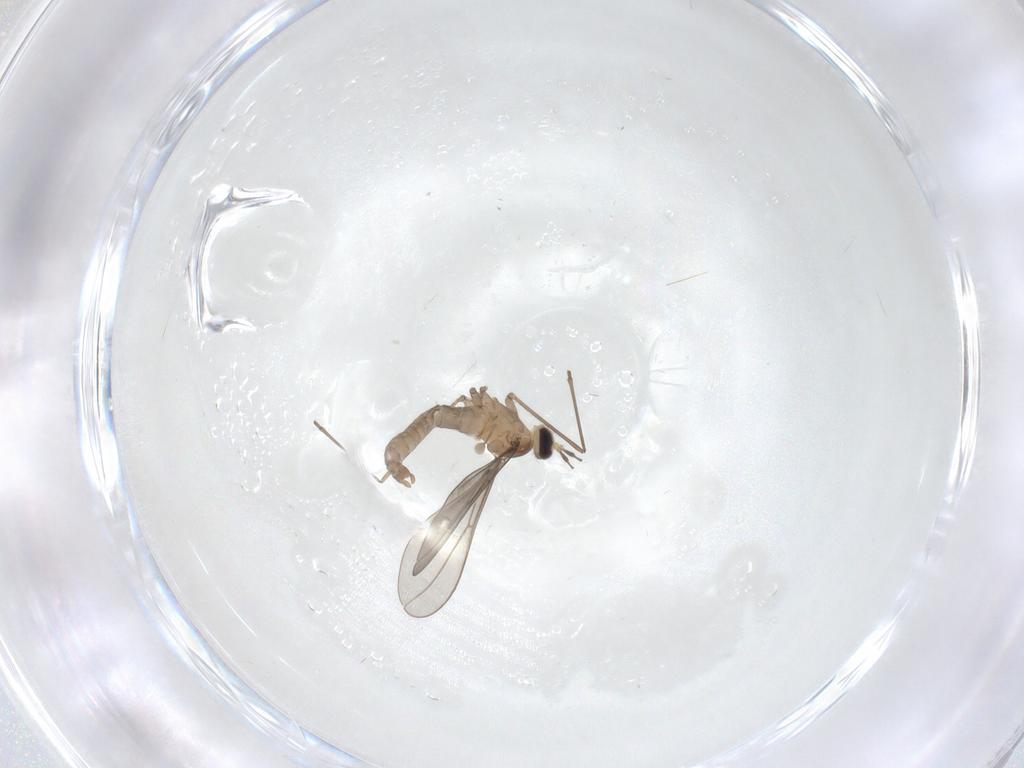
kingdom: Animalia
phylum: Arthropoda
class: Insecta
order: Diptera
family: Chironomidae
